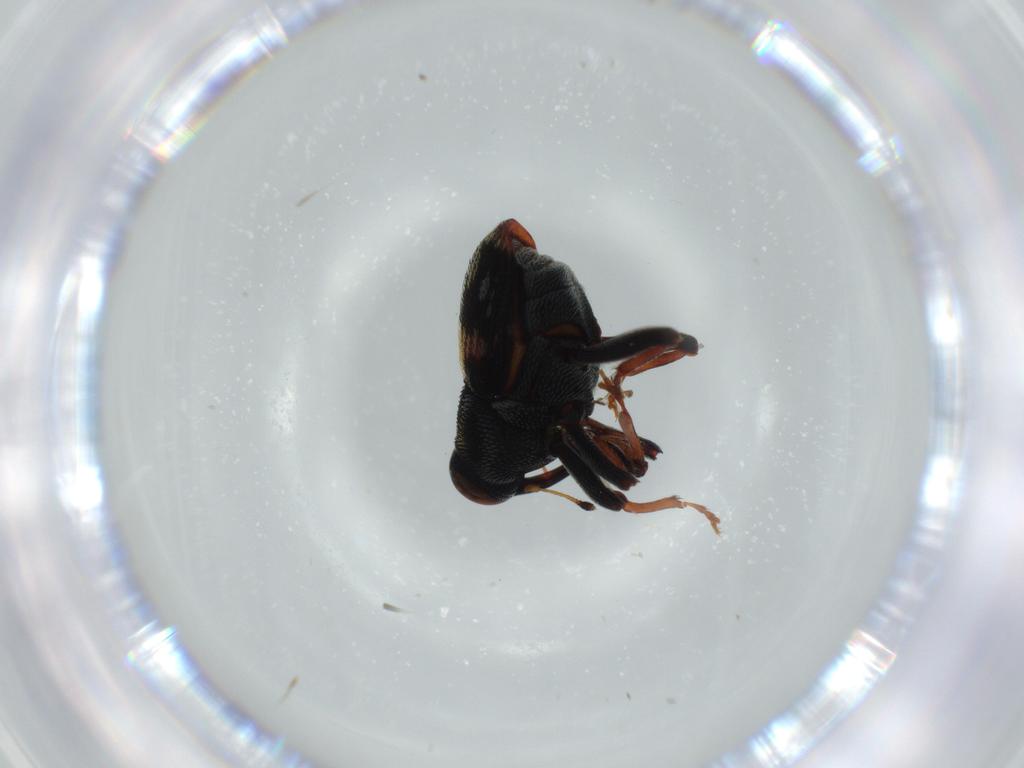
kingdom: Animalia
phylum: Arthropoda
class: Insecta
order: Coleoptera
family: Curculionidae
